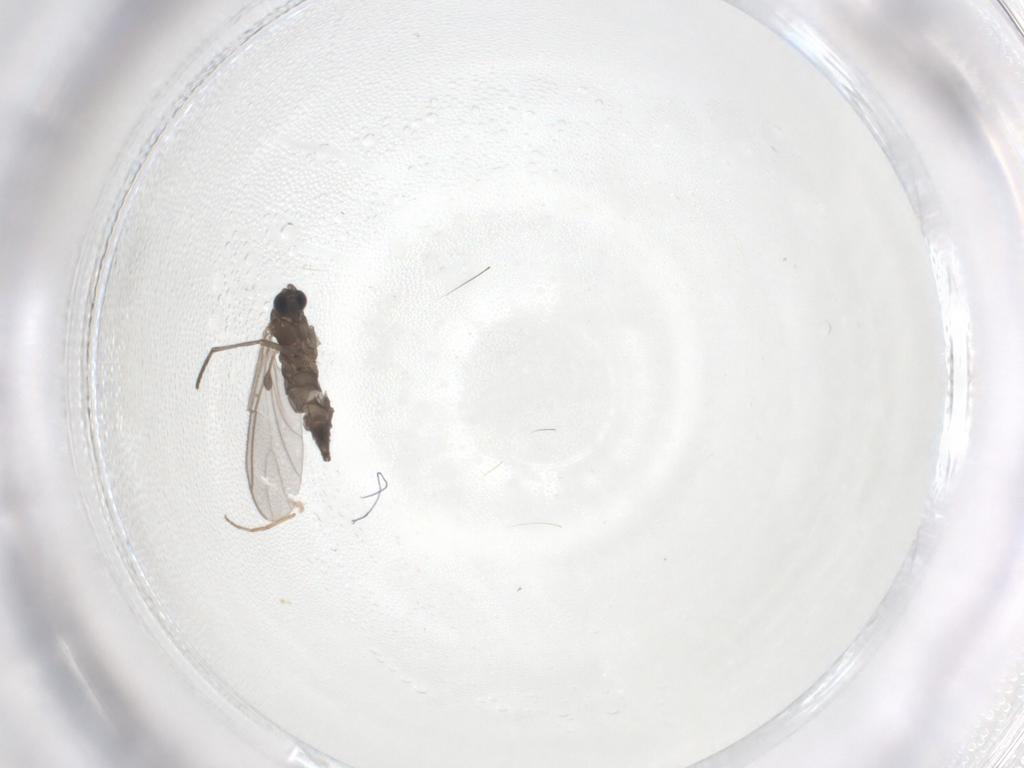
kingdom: Animalia
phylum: Arthropoda
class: Insecta
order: Diptera
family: Sciaridae
